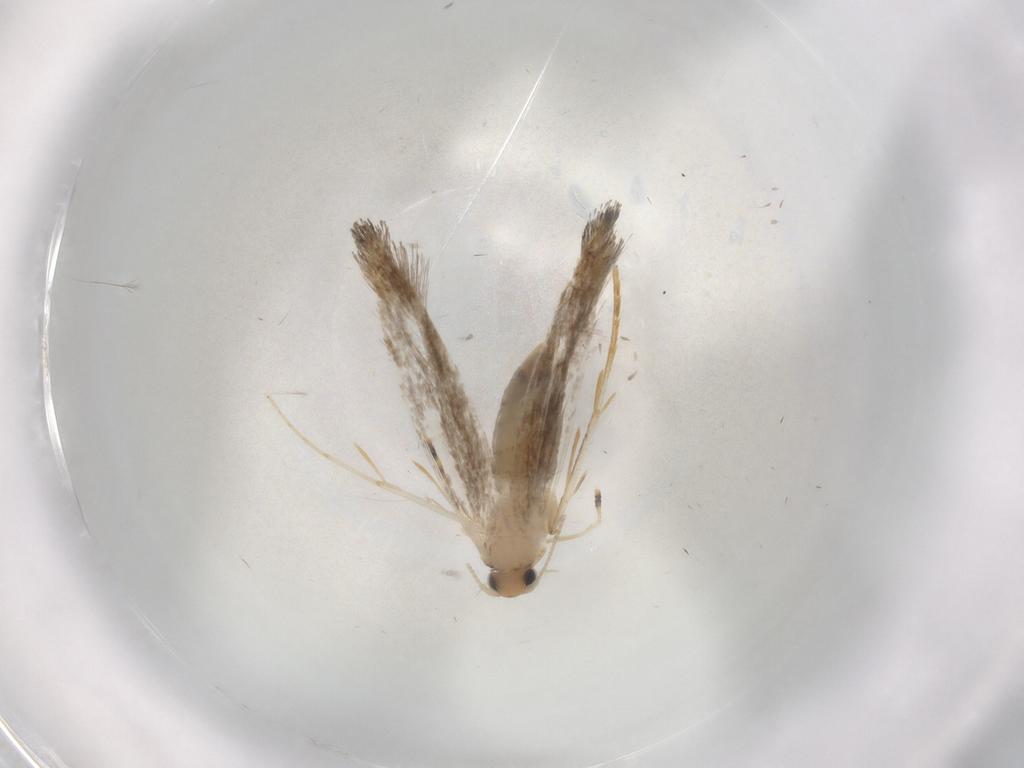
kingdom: Animalia
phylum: Arthropoda
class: Insecta
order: Lepidoptera
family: Tineidae
